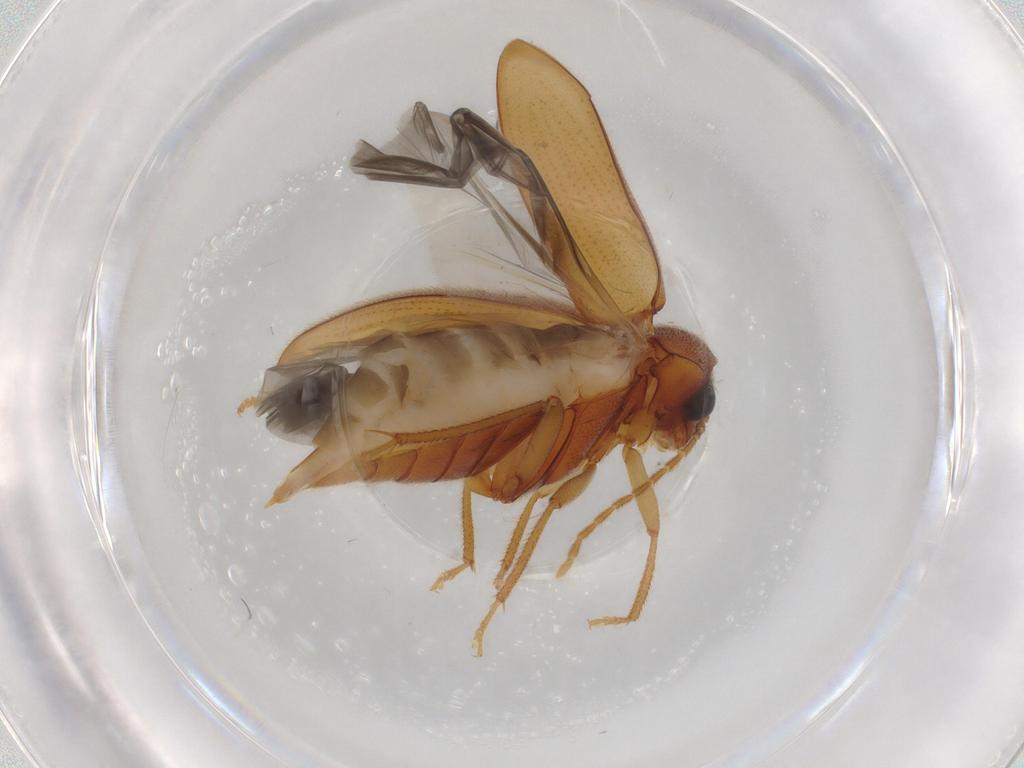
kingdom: Animalia
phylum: Arthropoda
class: Insecta
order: Coleoptera
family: Ptilodactylidae
